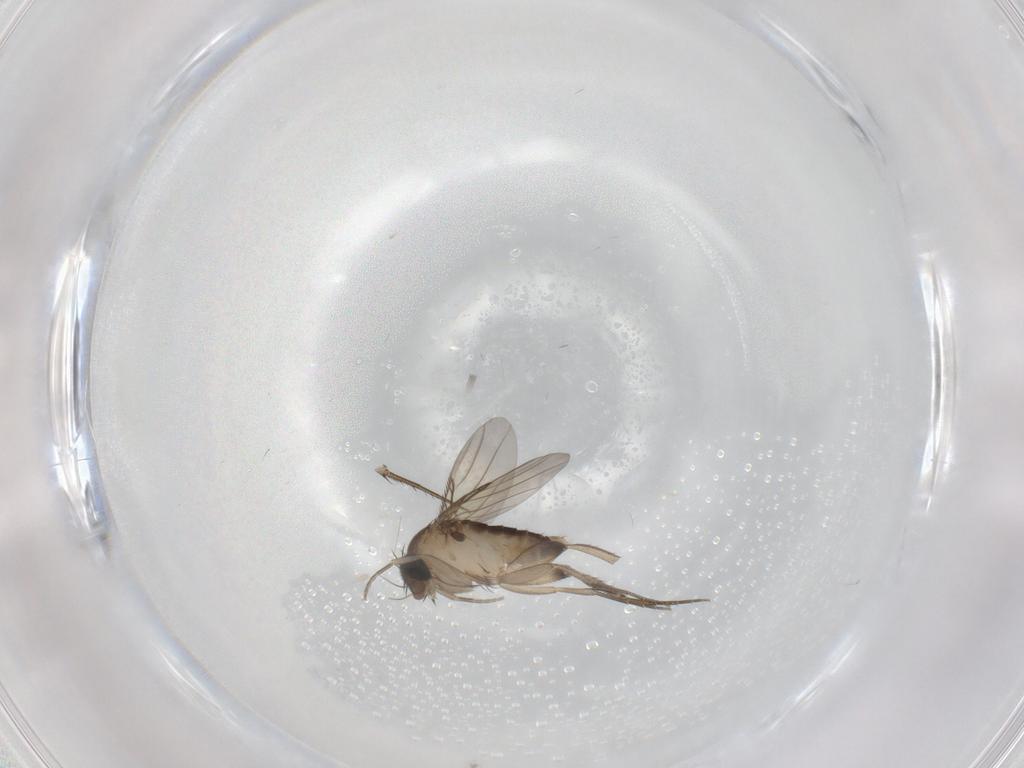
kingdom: Animalia
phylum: Arthropoda
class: Insecta
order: Diptera
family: Phoridae
